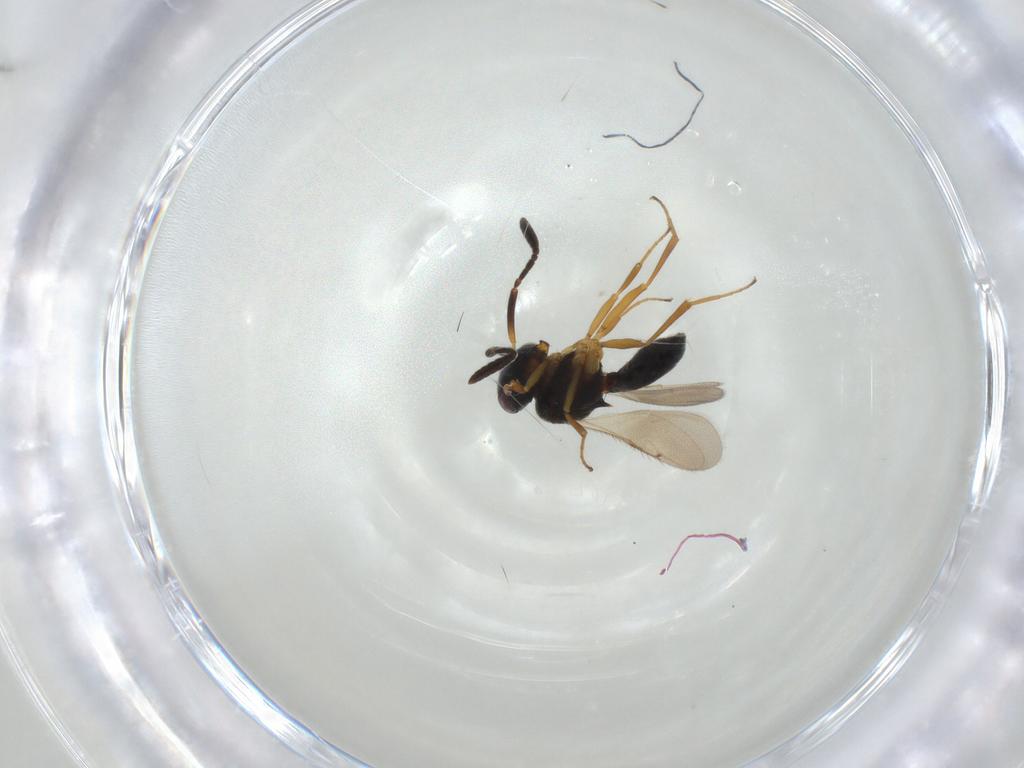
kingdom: Animalia
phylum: Arthropoda
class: Insecta
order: Hymenoptera
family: Scelionidae
